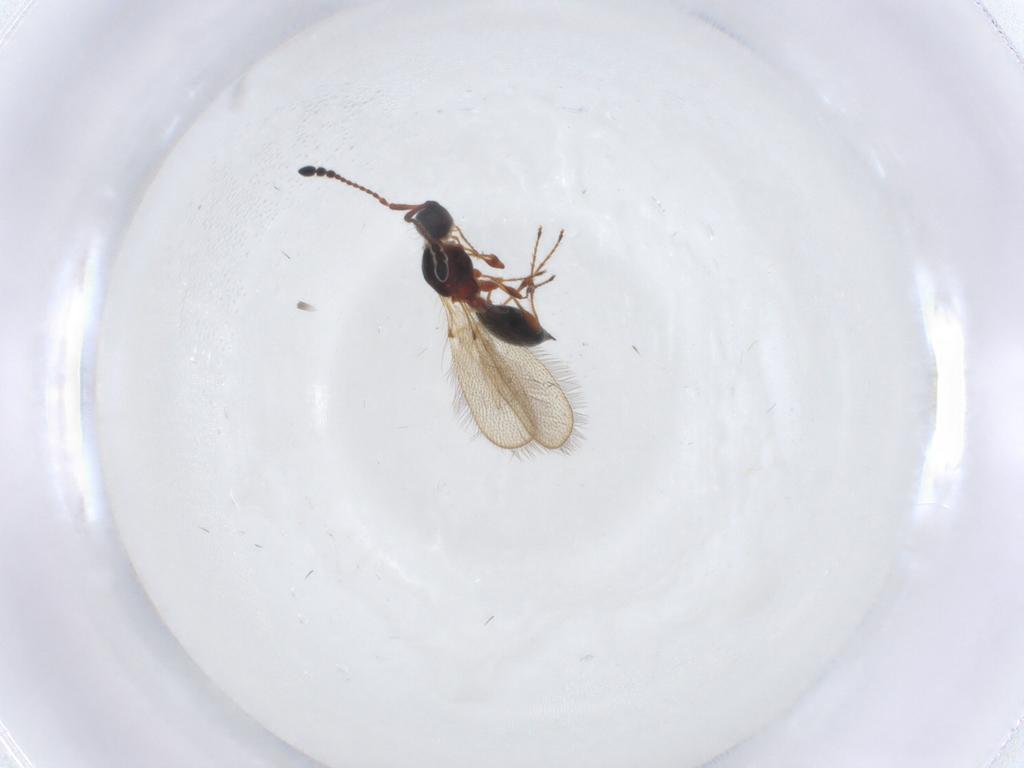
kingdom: Animalia
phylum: Arthropoda
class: Insecta
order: Hymenoptera
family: Diapriidae
